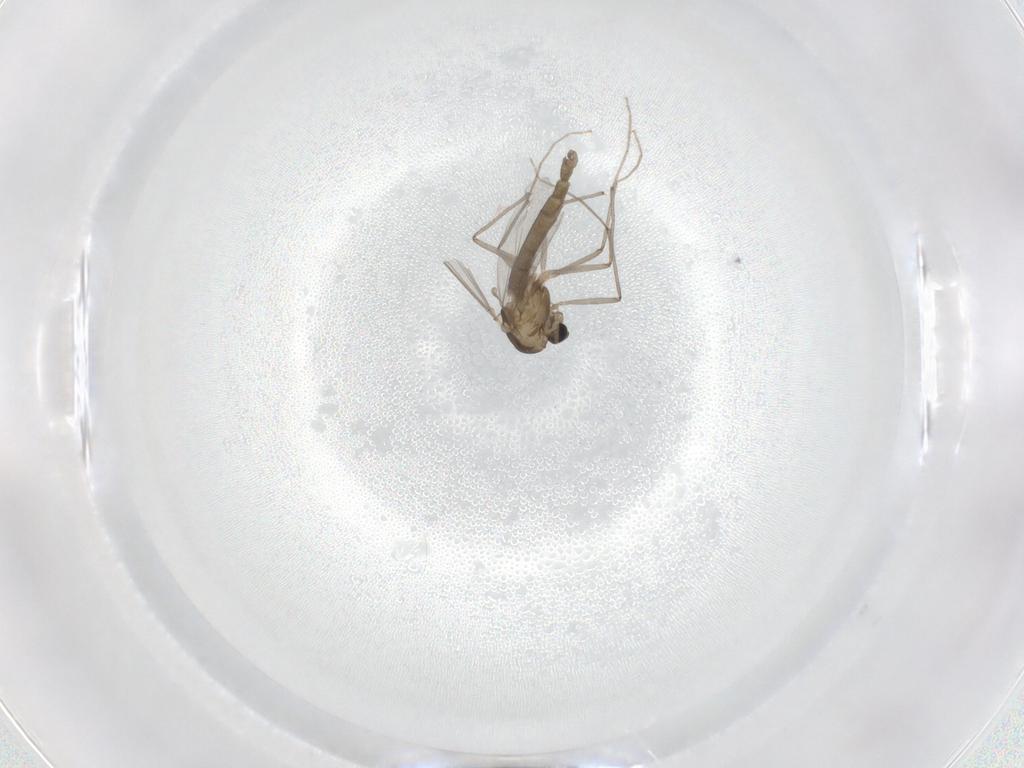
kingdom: Animalia
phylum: Arthropoda
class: Insecta
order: Diptera
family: Chironomidae
